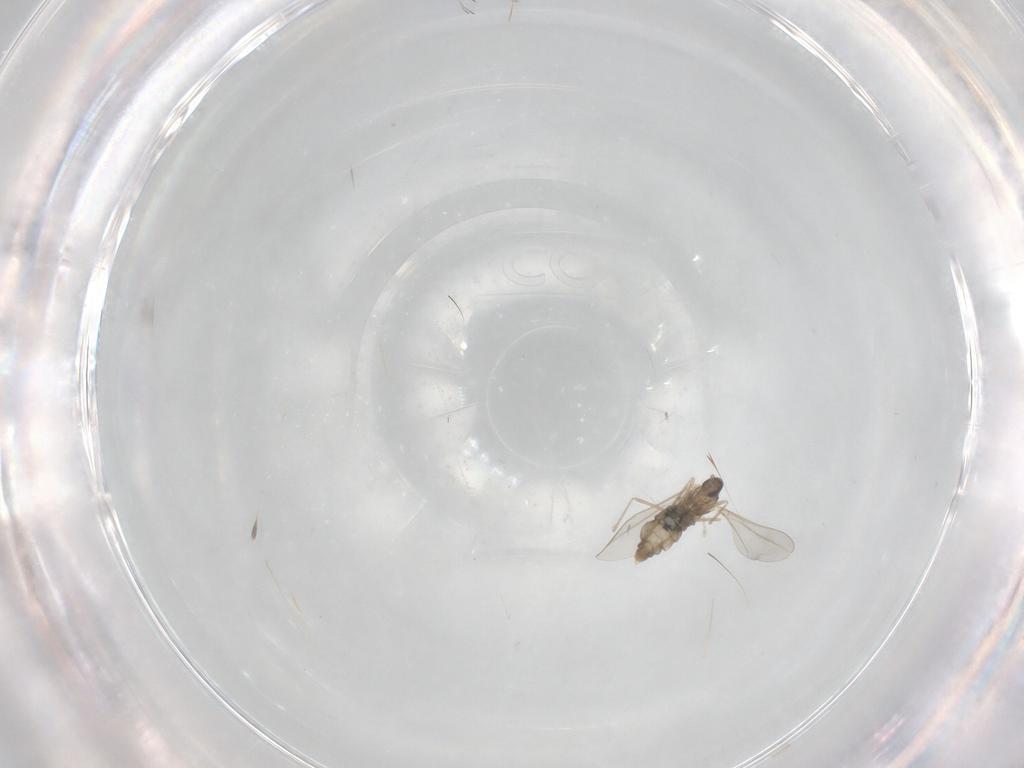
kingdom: Animalia
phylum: Arthropoda
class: Insecta
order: Diptera
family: Cecidomyiidae
